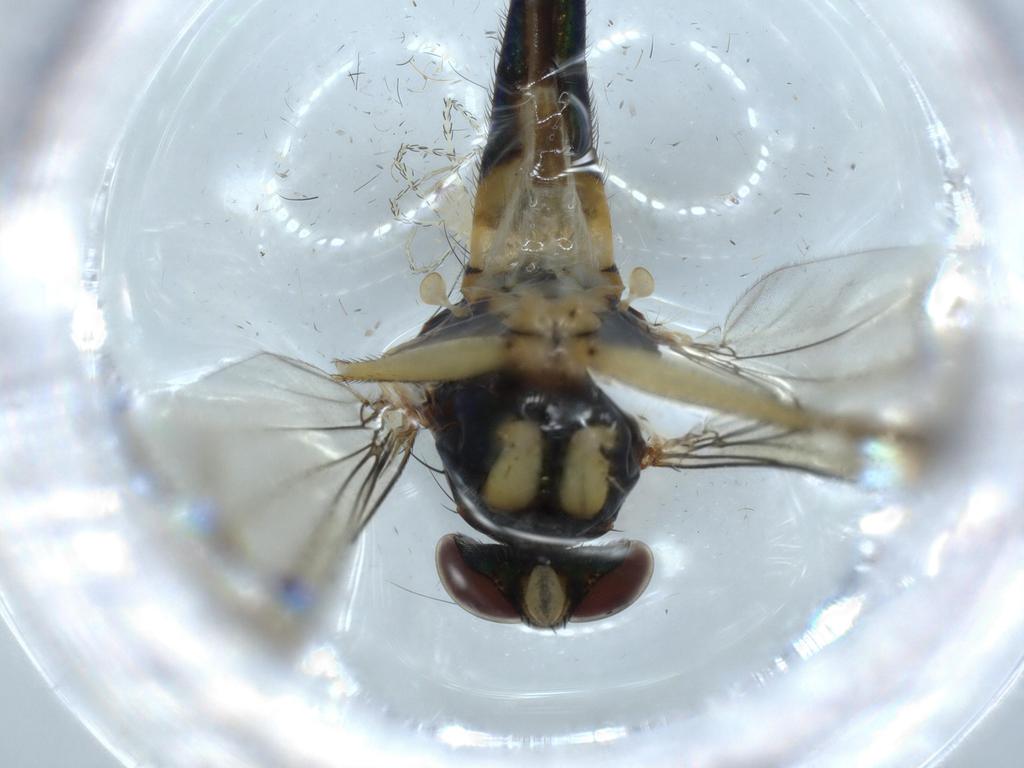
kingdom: Animalia
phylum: Arthropoda
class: Insecta
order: Diptera
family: Dolichopodidae
